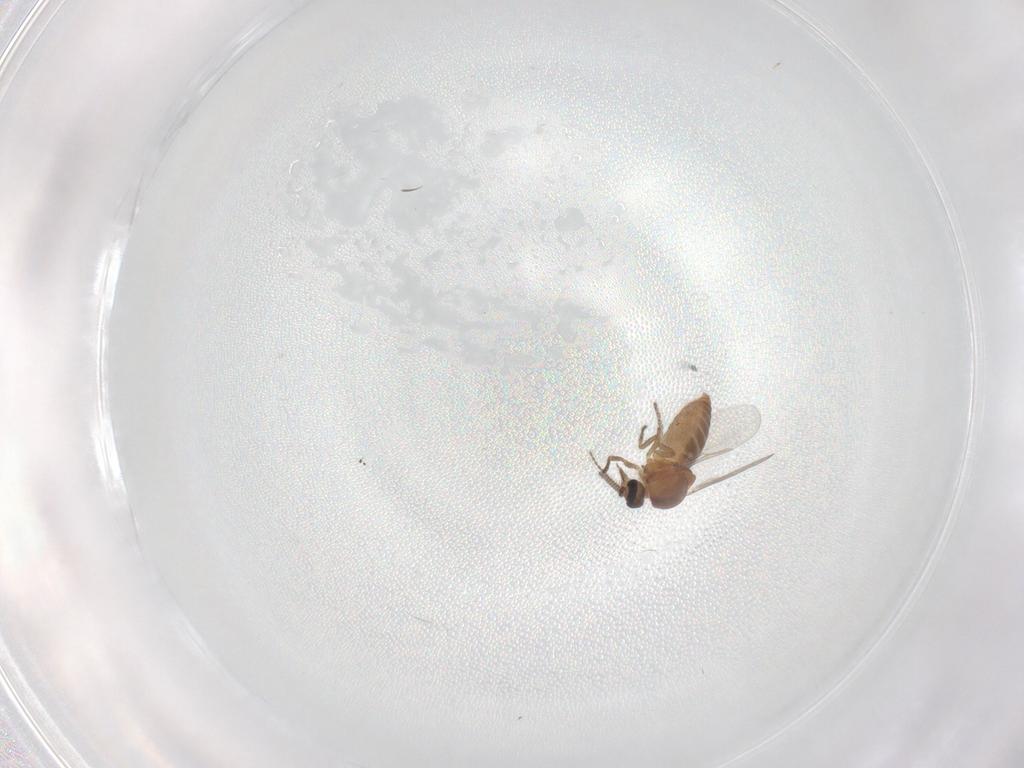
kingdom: Animalia
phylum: Arthropoda
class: Insecta
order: Diptera
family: Ceratopogonidae
